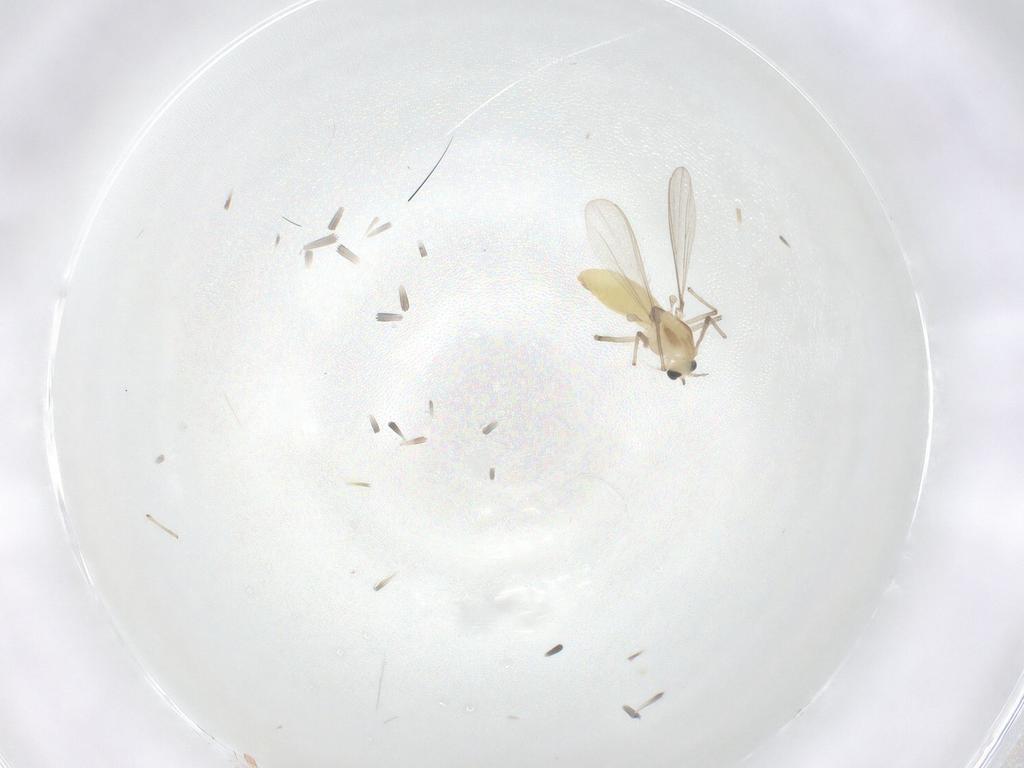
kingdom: Animalia
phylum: Arthropoda
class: Insecta
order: Diptera
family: Chironomidae
